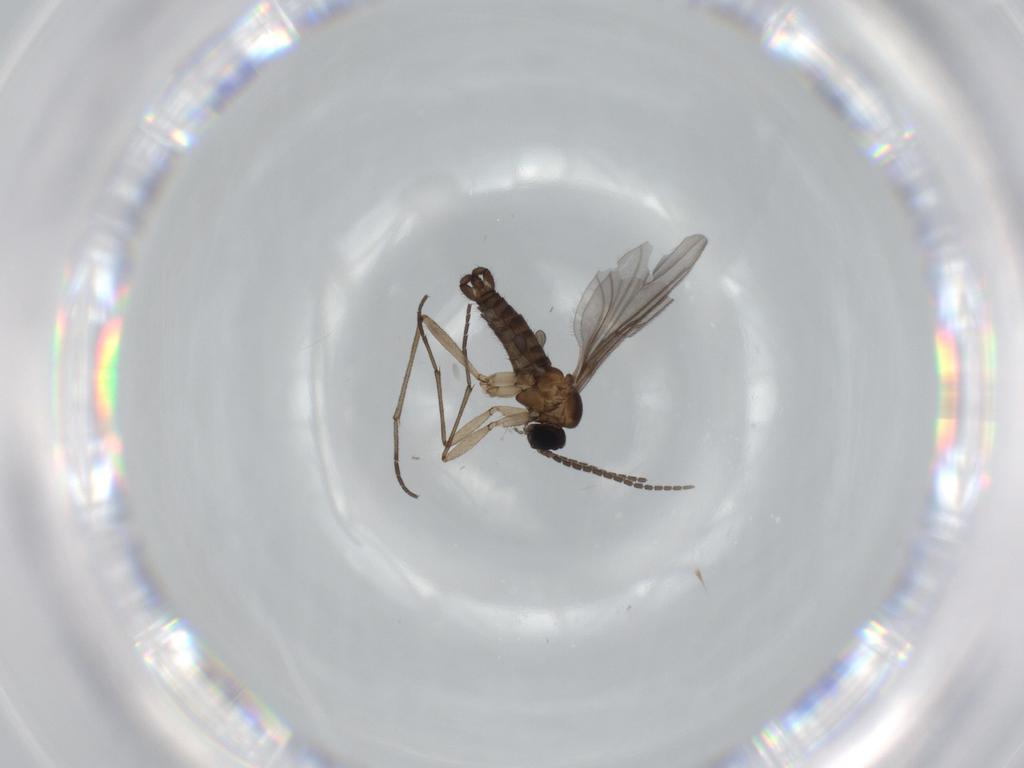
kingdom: Animalia
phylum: Arthropoda
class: Insecta
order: Diptera
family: Sciaridae
